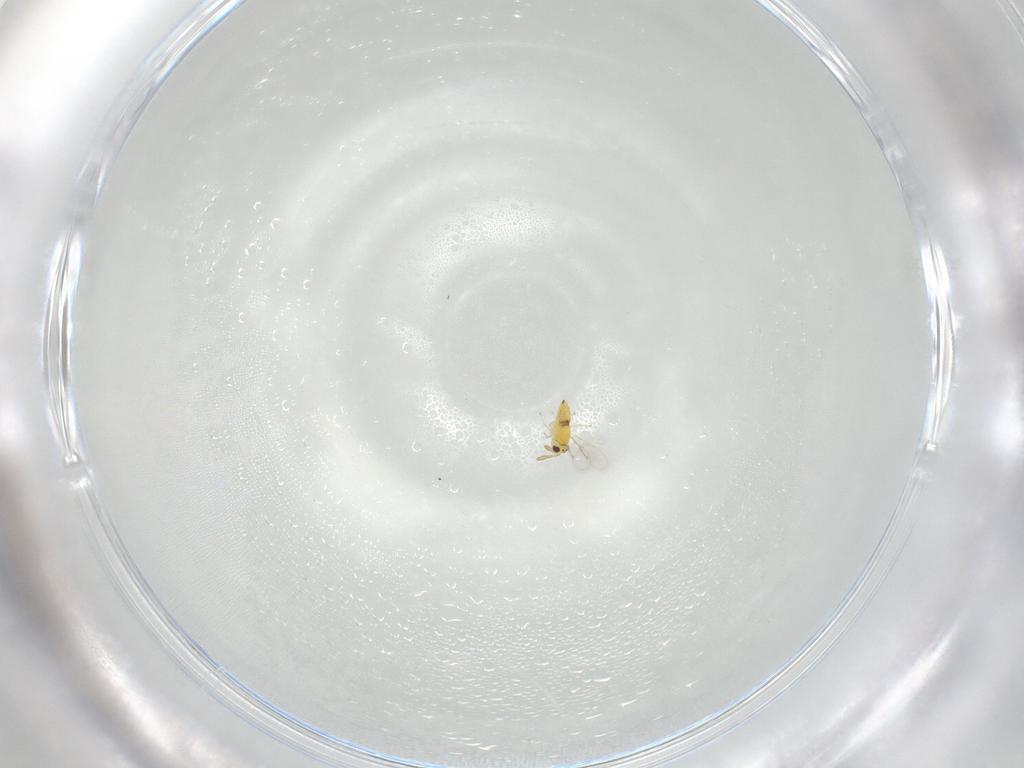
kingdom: Animalia
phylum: Arthropoda
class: Insecta
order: Hymenoptera
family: Aphelinidae
